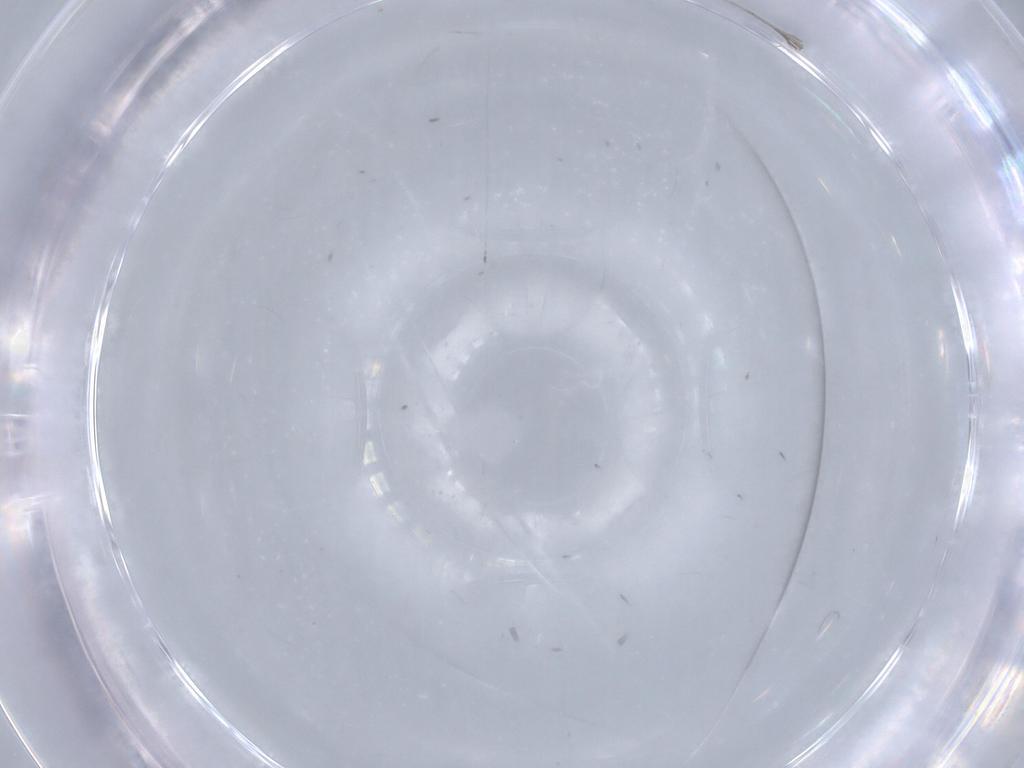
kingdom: Animalia
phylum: Arthropoda
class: Insecta
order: Diptera
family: Cecidomyiidae
